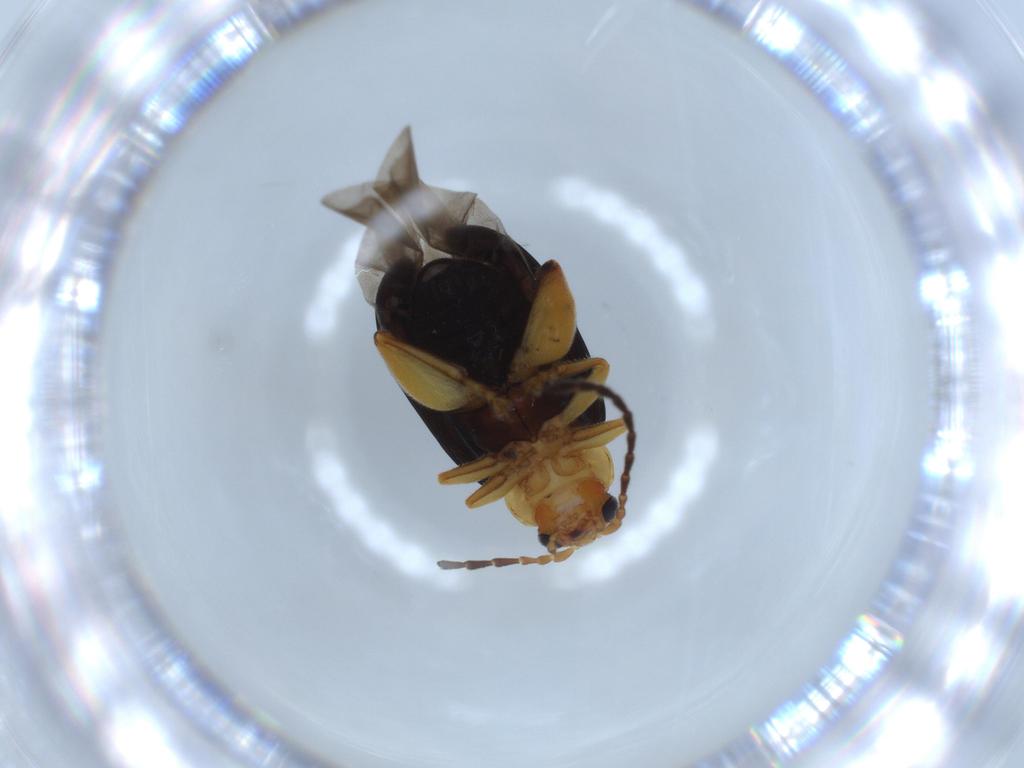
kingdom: Animalia
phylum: Arthropoda
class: Insecta
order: Coleoptera
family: Chrysomelidae
